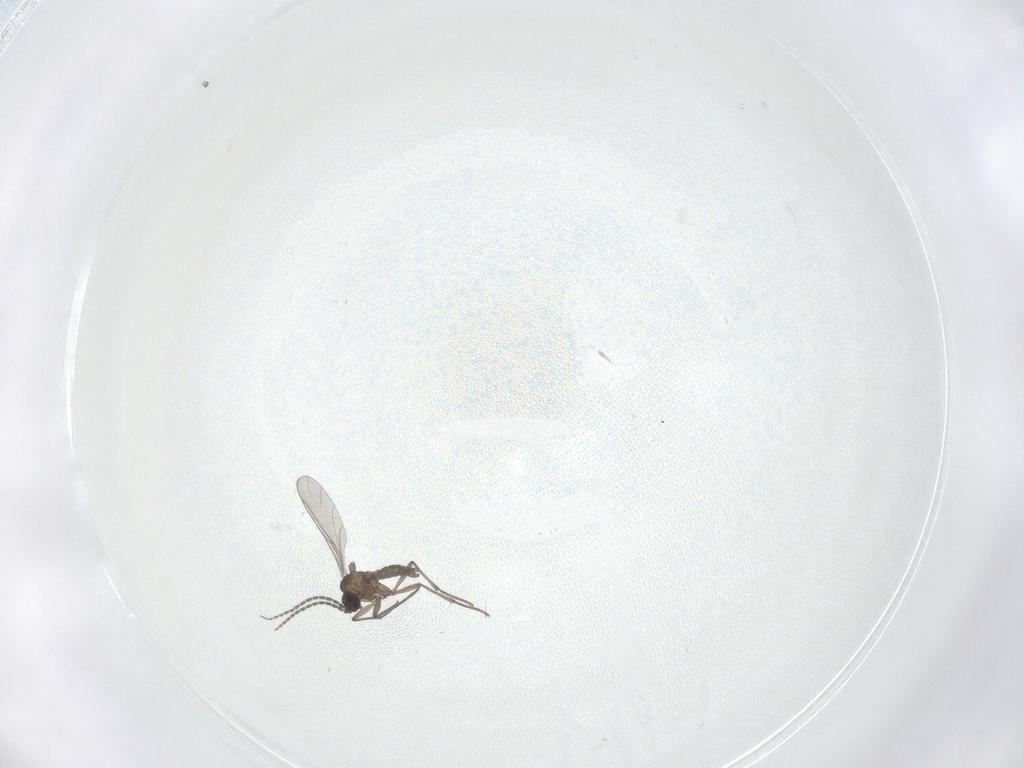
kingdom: Animalia
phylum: Arthropoda
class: Insecta
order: Diptera
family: Sciaridae
